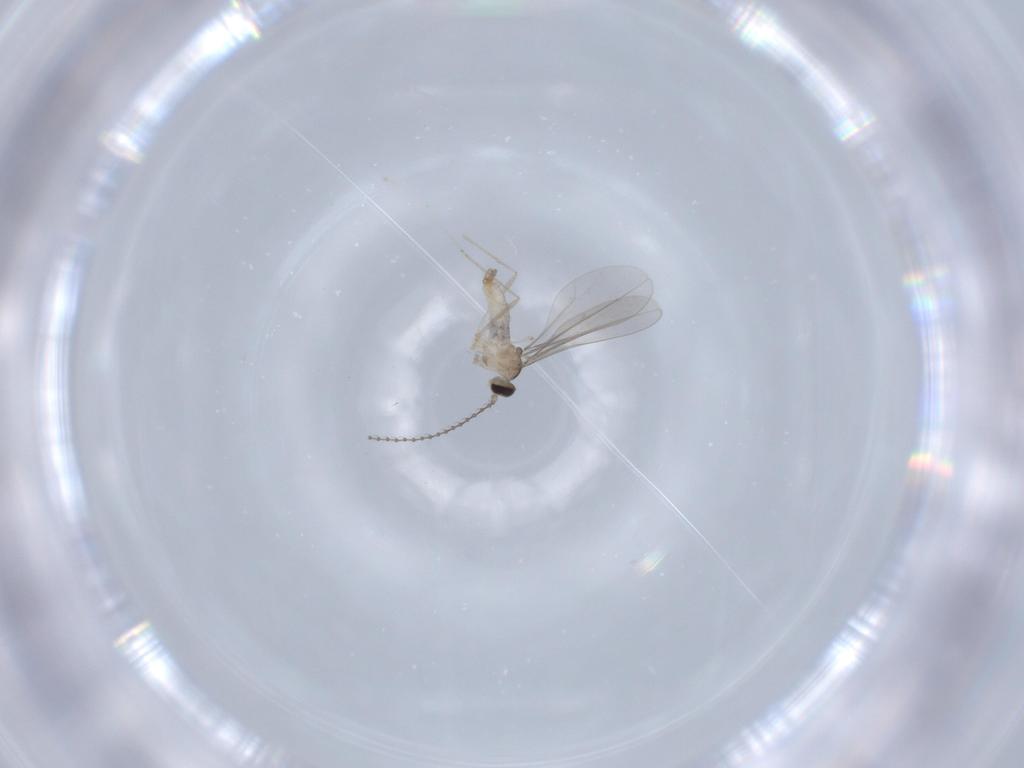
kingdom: Animalia
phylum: Arthropoda
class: Insecta
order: Diptera
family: Cecidomyiidae
